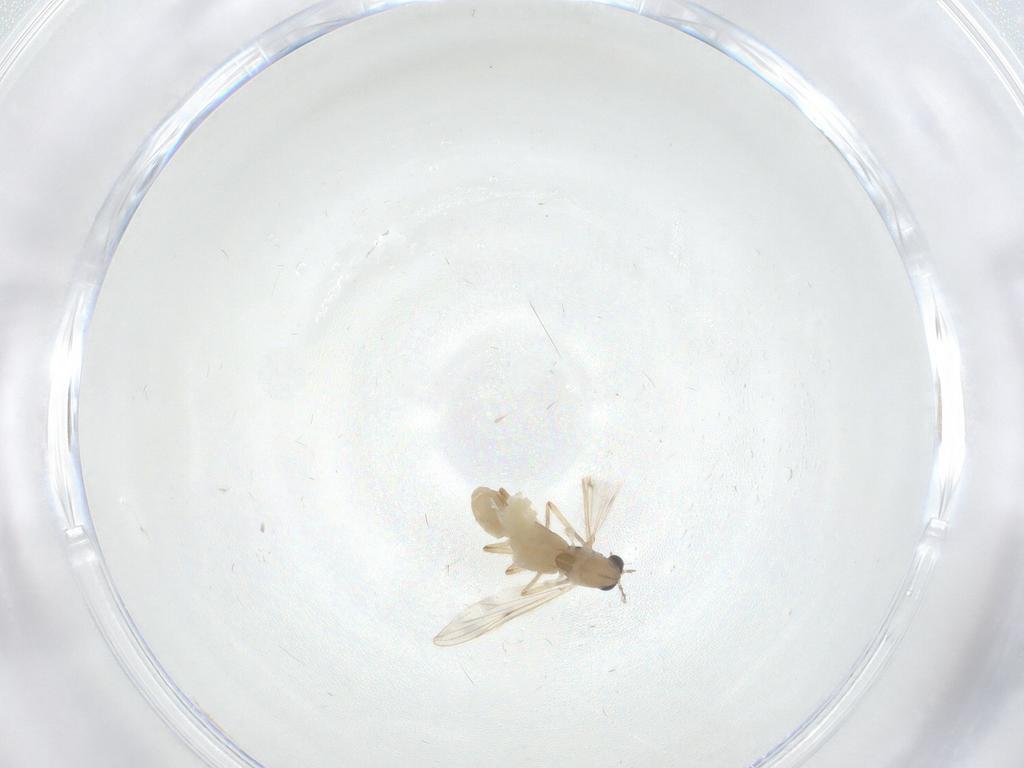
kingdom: Animalia
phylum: Arthropoda
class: Insecta
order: Diptera
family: Chironomidae
